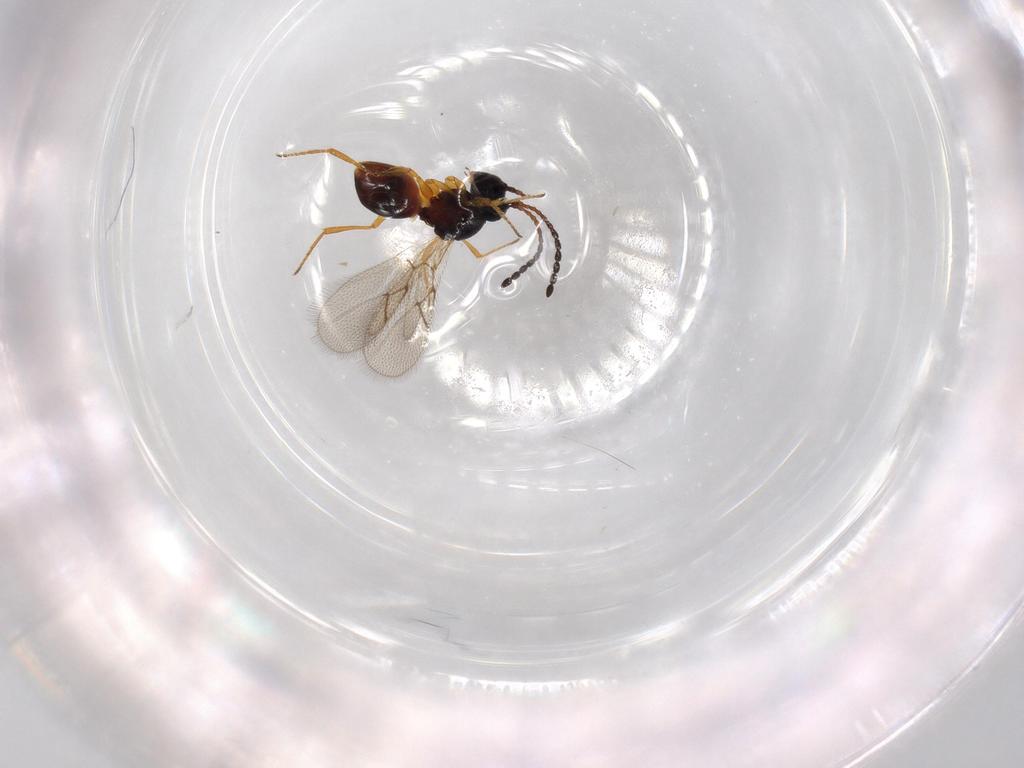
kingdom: Animalia
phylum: Arthropoda
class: Insecta
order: Hymenoptera
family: Figitidae
